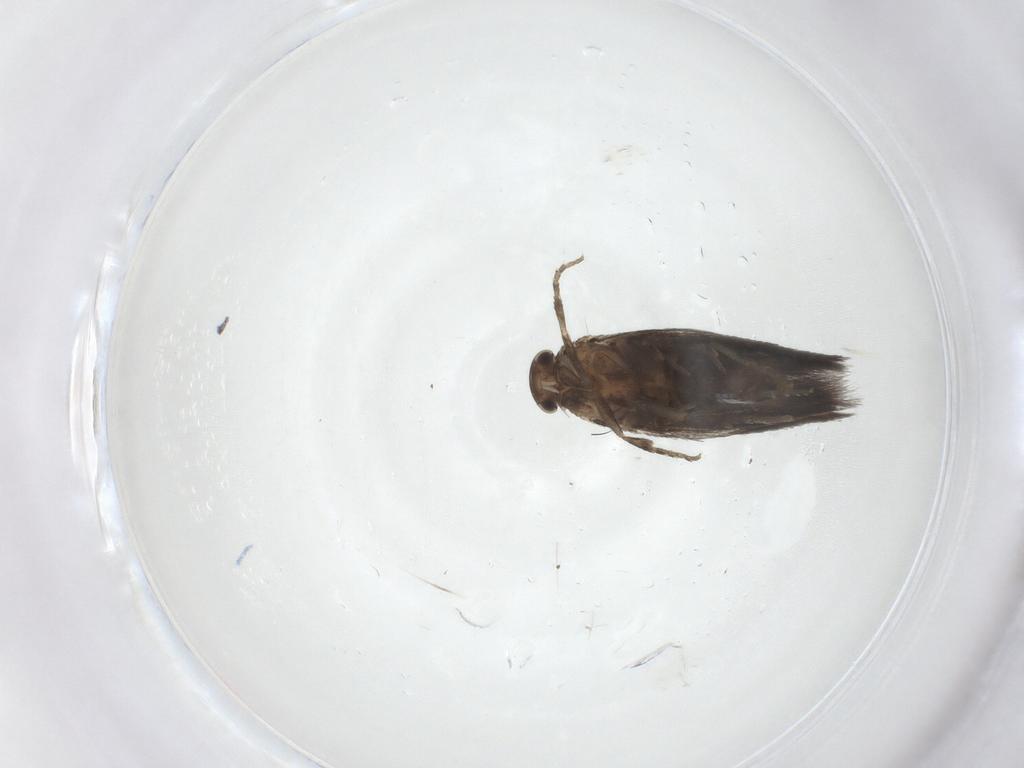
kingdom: Animalia
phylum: Arthropoda
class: Insecta
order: Lepidoptera
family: Elachistidae
